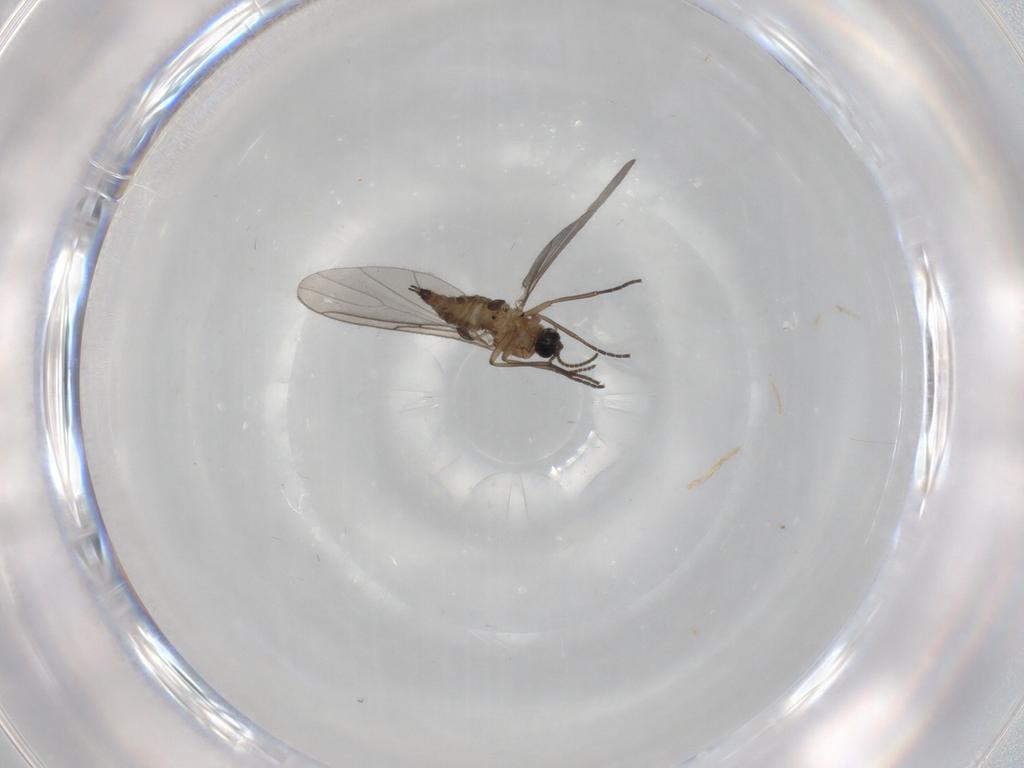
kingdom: Animalia
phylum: Arthropoda
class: Insecta
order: Diptera
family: Sciaridae
